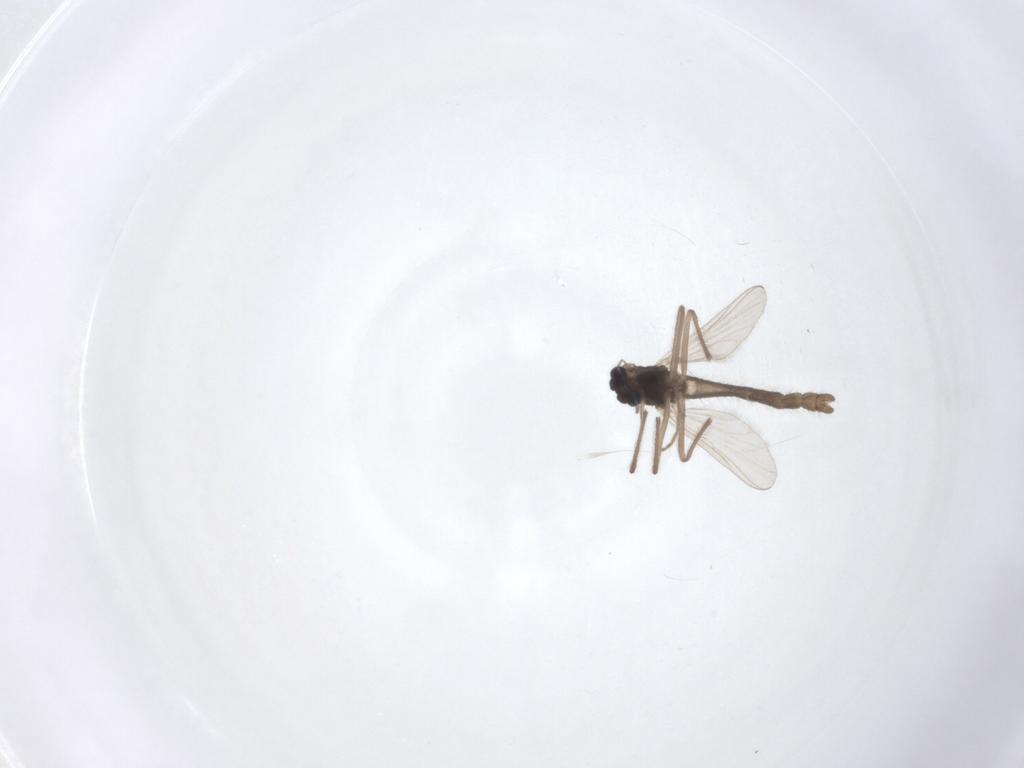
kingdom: Animalia
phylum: Arthropoda
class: Insecta
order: Diptera
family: Chironomidae
